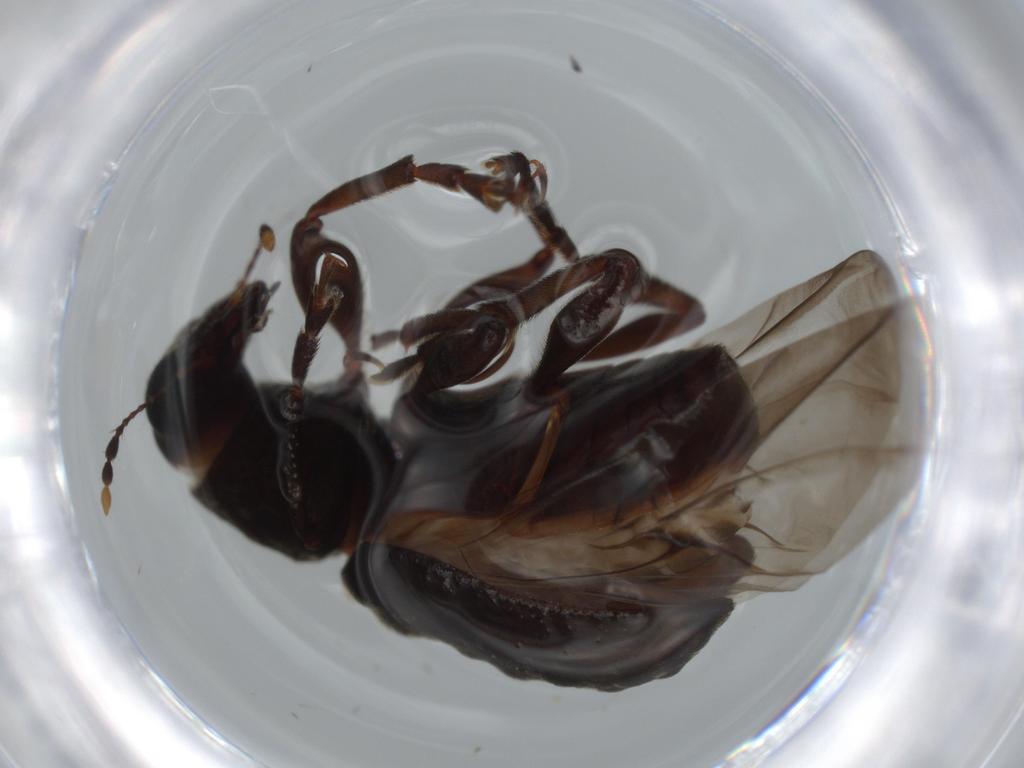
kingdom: Animalia
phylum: Arthropoda
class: Insecta
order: Coleoptera
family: Anthribidae
